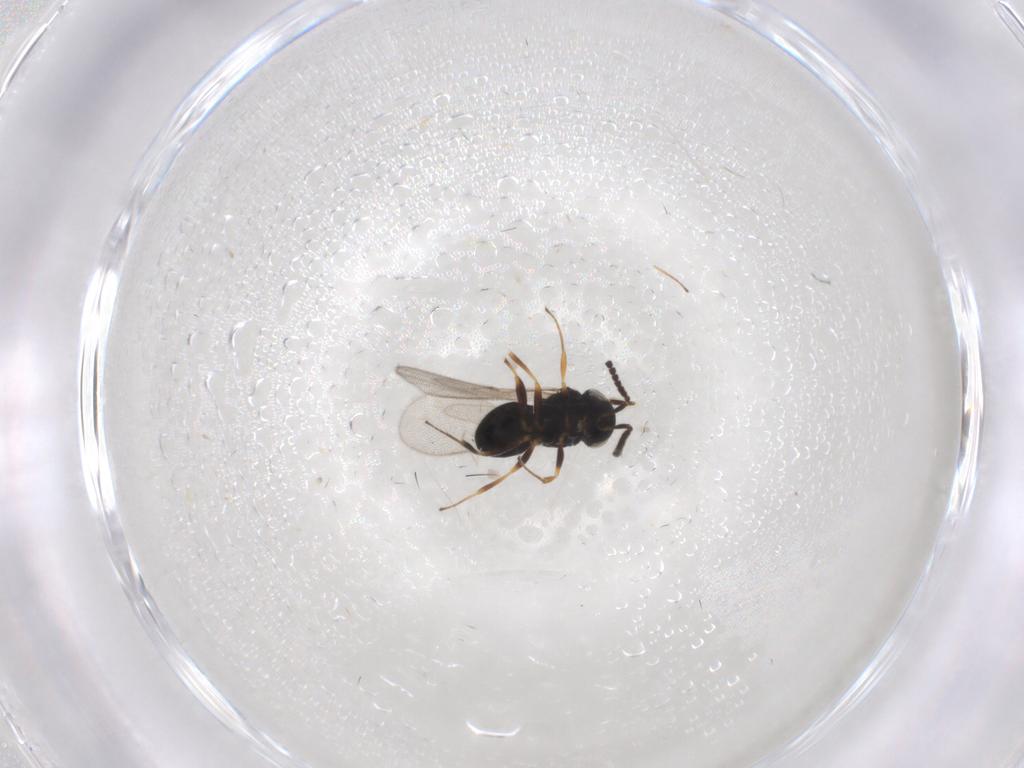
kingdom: Animalia
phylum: Arthropoda
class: Insecta
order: Hymenoptera
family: Scelionidae
